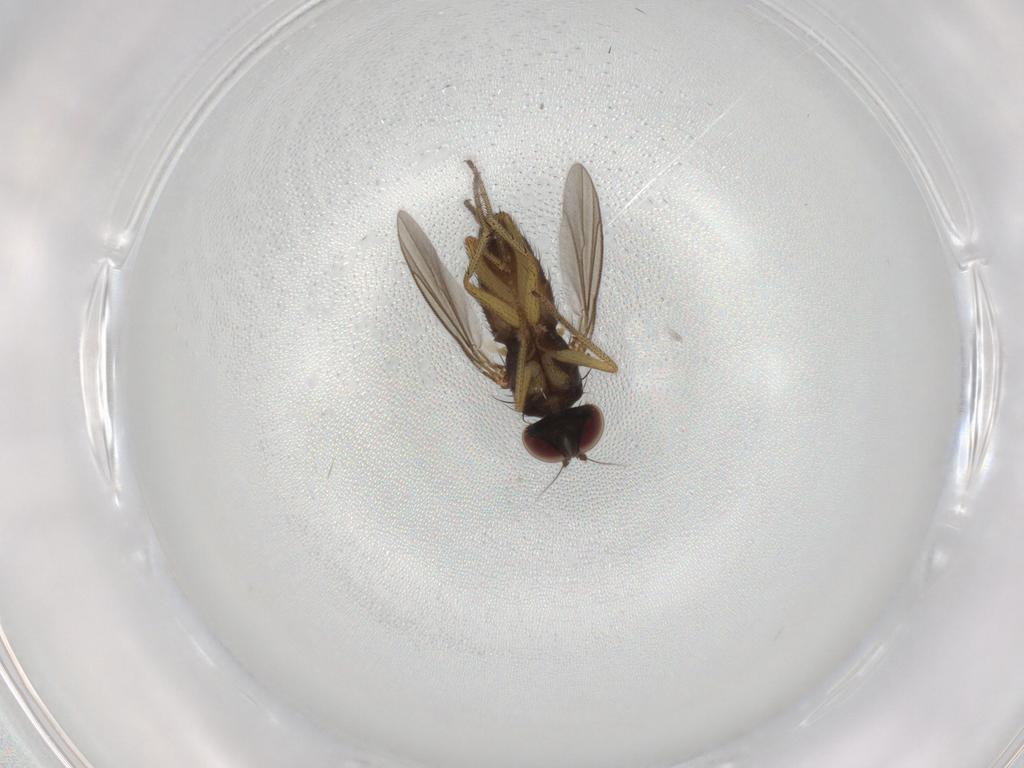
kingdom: Animalia
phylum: Arthropoda
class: Insecta
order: Diptera
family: Dolichopodidae
